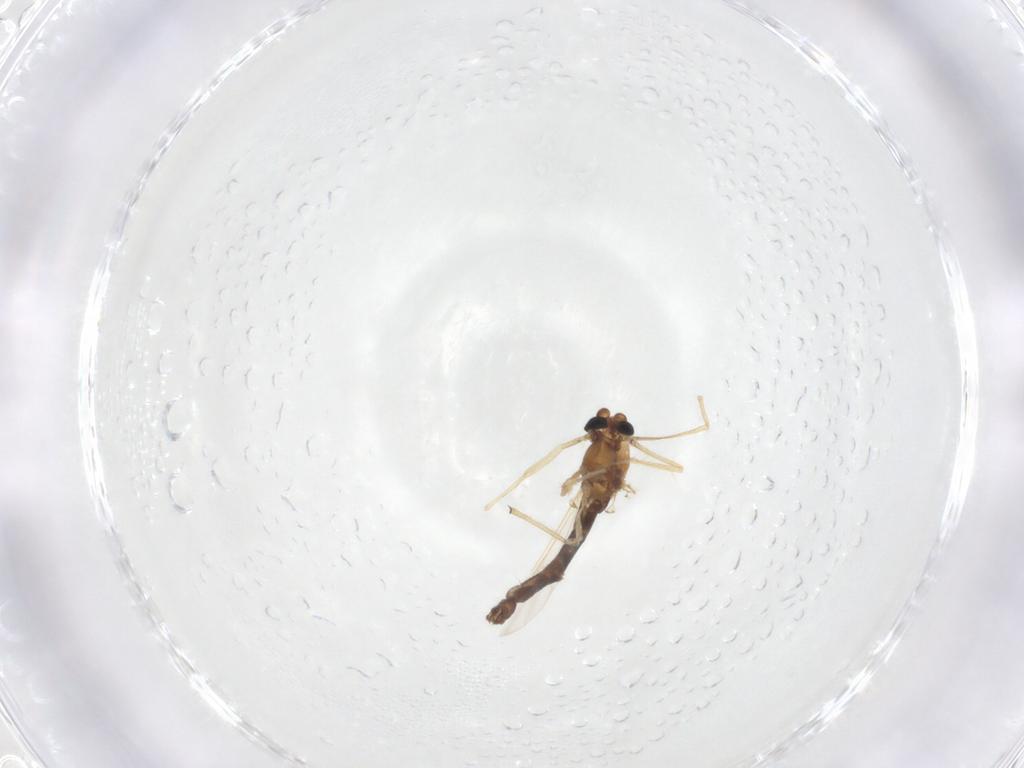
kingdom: Animalia
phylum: Arthropoda
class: Insecta
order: Diptera
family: Chironomidae
